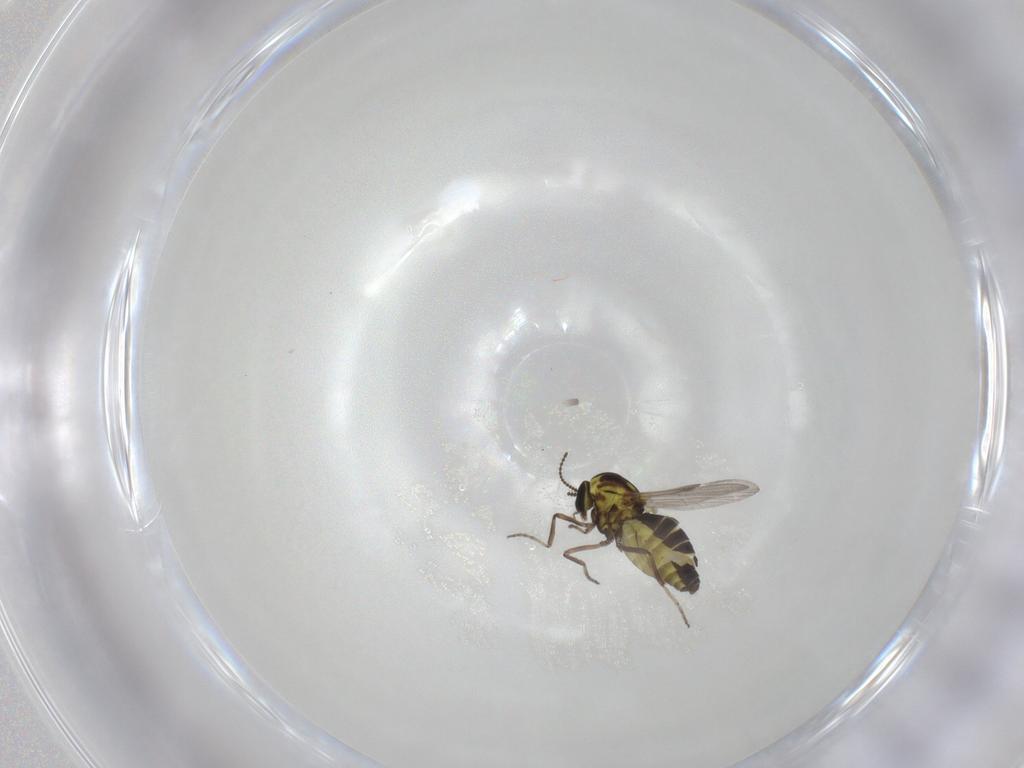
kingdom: Animalia
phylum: Arthropoda
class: Insecta
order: Diptera
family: Ceratopogonidae
